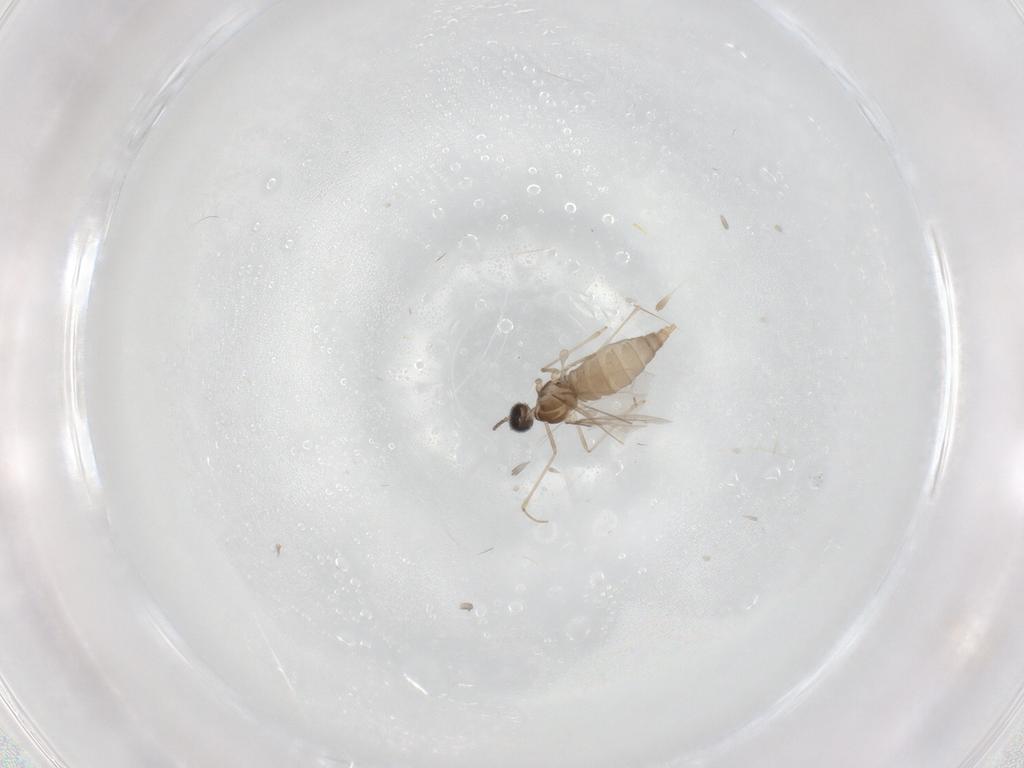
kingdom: Animalia
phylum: Arthropoda
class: Insecta
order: Diptera
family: Cecidomyiidae
